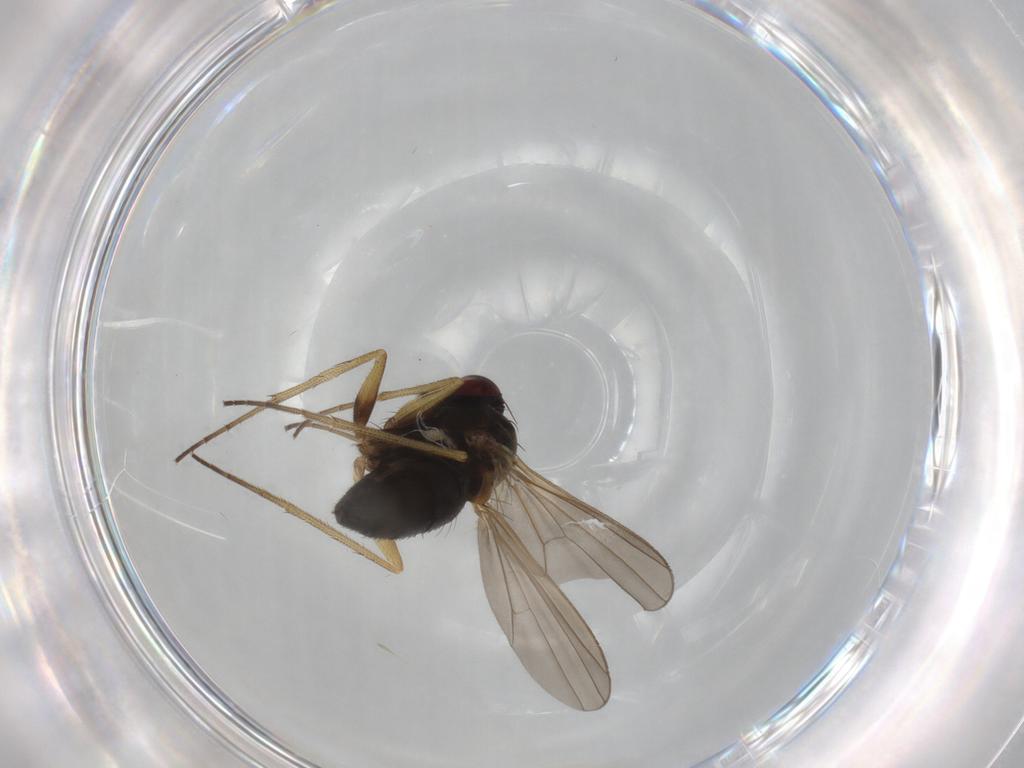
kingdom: Animalia
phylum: Arthropoda
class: Insecta
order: Diptera
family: Dolichopodidae
